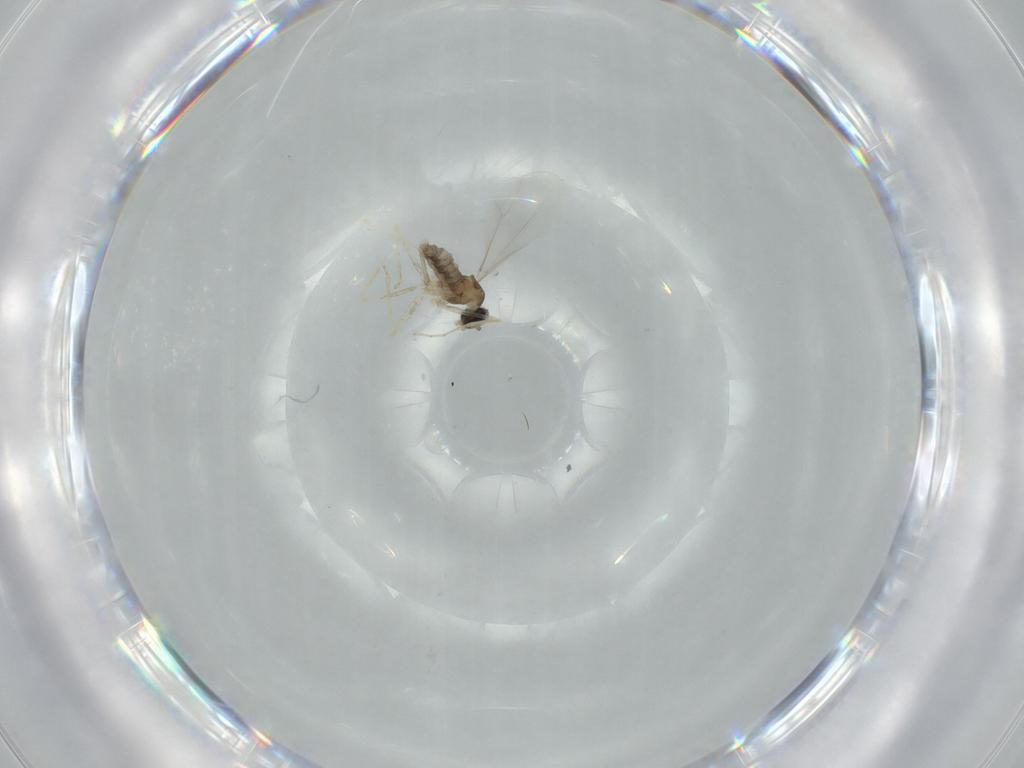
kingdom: Animalia
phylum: Arthropoda
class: Insecta
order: Diptera
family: Cecidomyiidae
